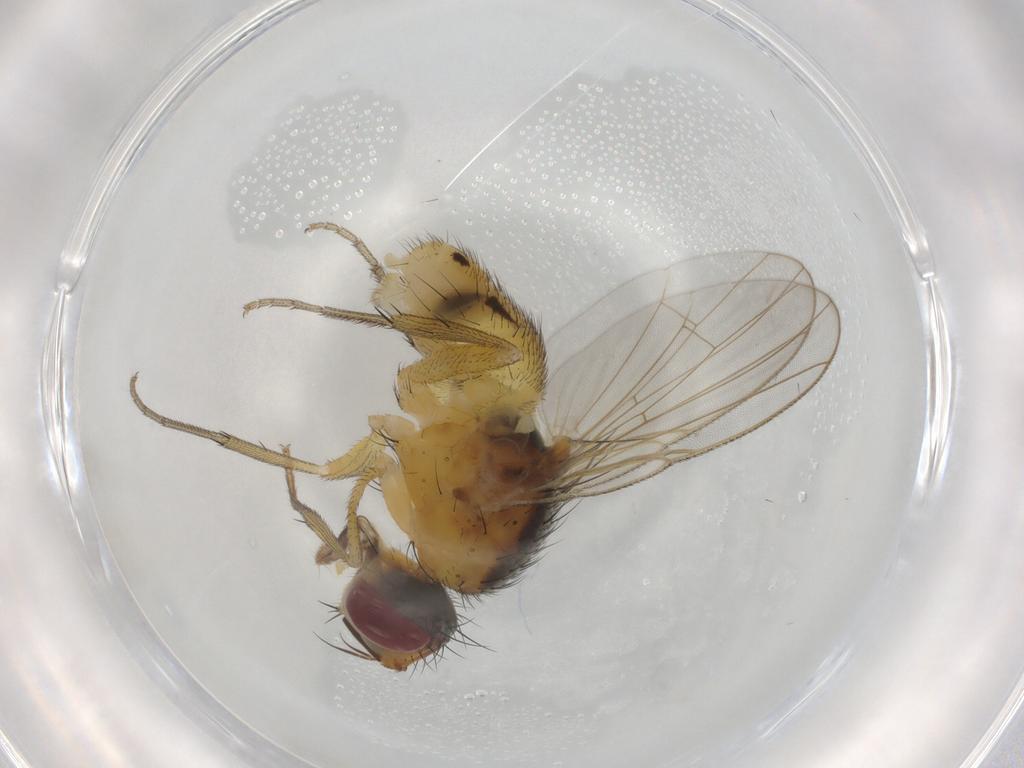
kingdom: Animalia
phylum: Arthropoda
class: Insecta
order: Diptera
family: Muscidae
